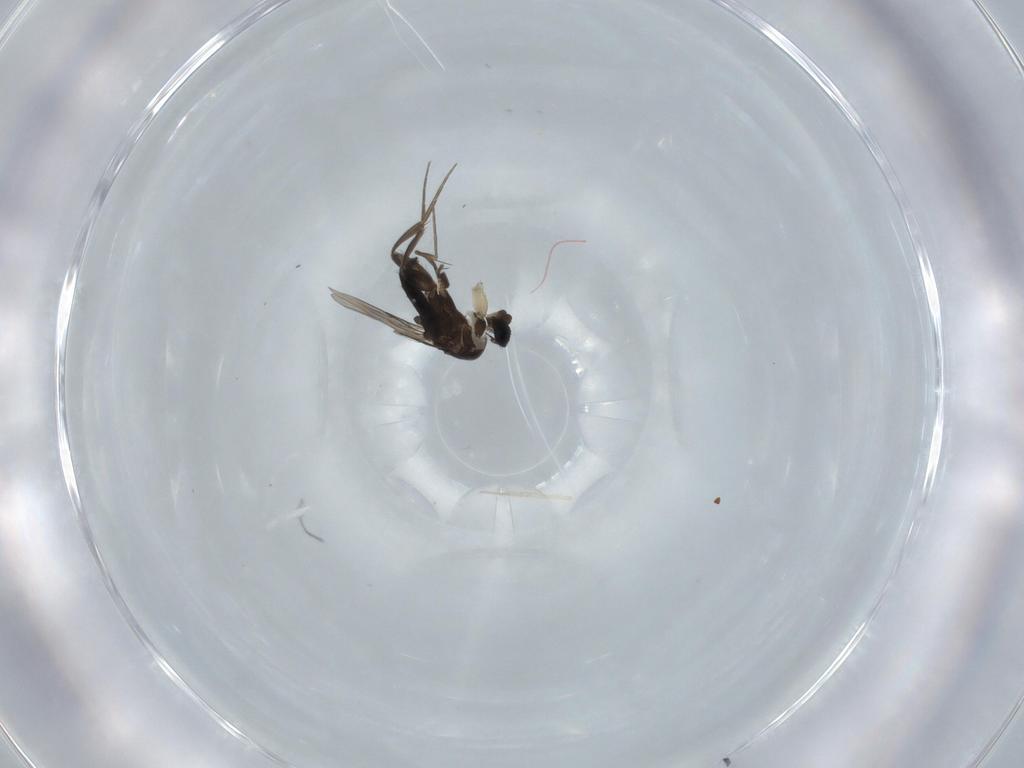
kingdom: Animalia
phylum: Arthropoda
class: Insecta
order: Diptera
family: Phoridae
